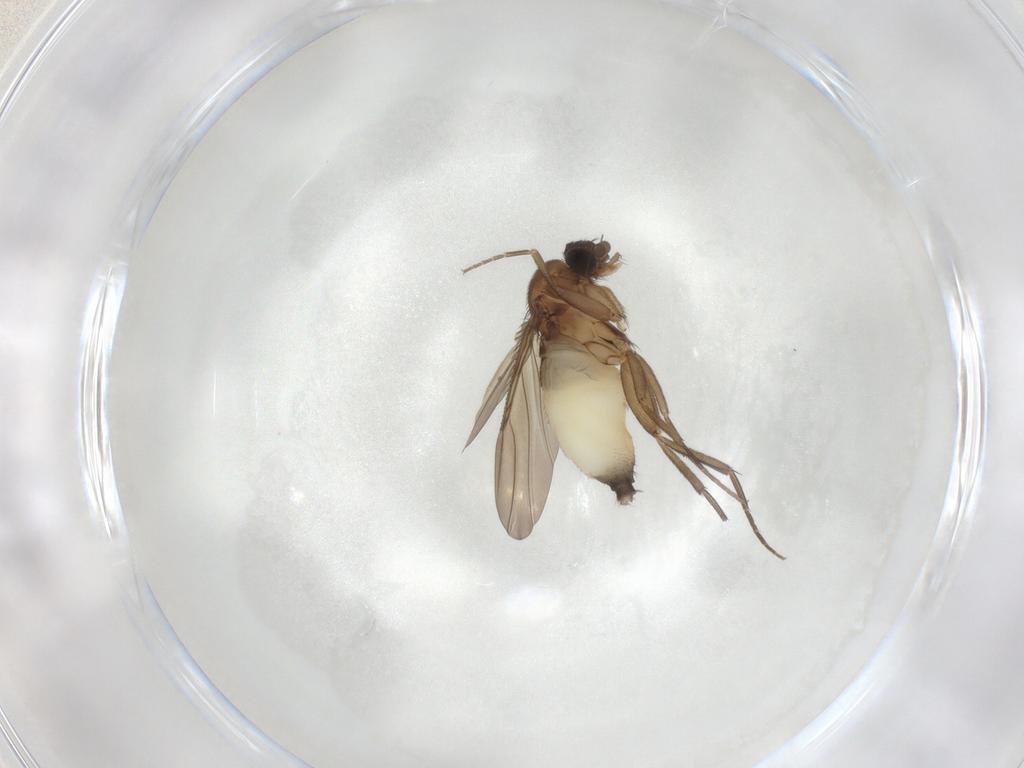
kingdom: Animalia
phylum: Arthropoda
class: Insecta
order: Diptera
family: Phoridae
